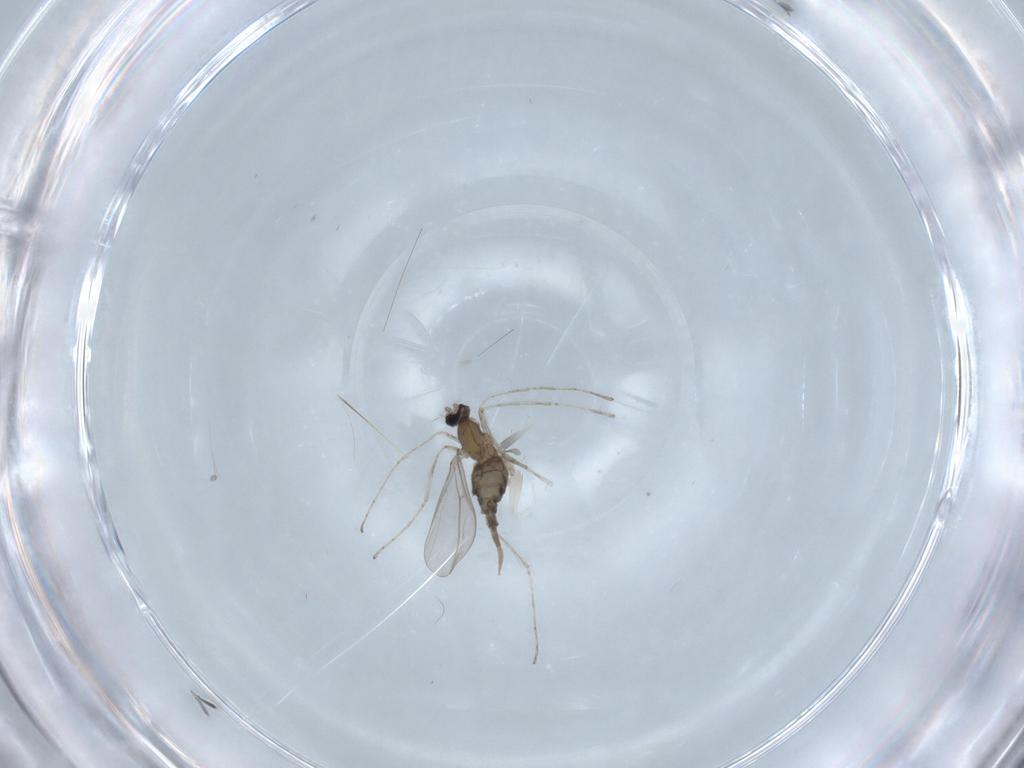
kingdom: Animalia
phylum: Arthropoda
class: Insecta
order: Diptera
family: Cecidomyiidae
